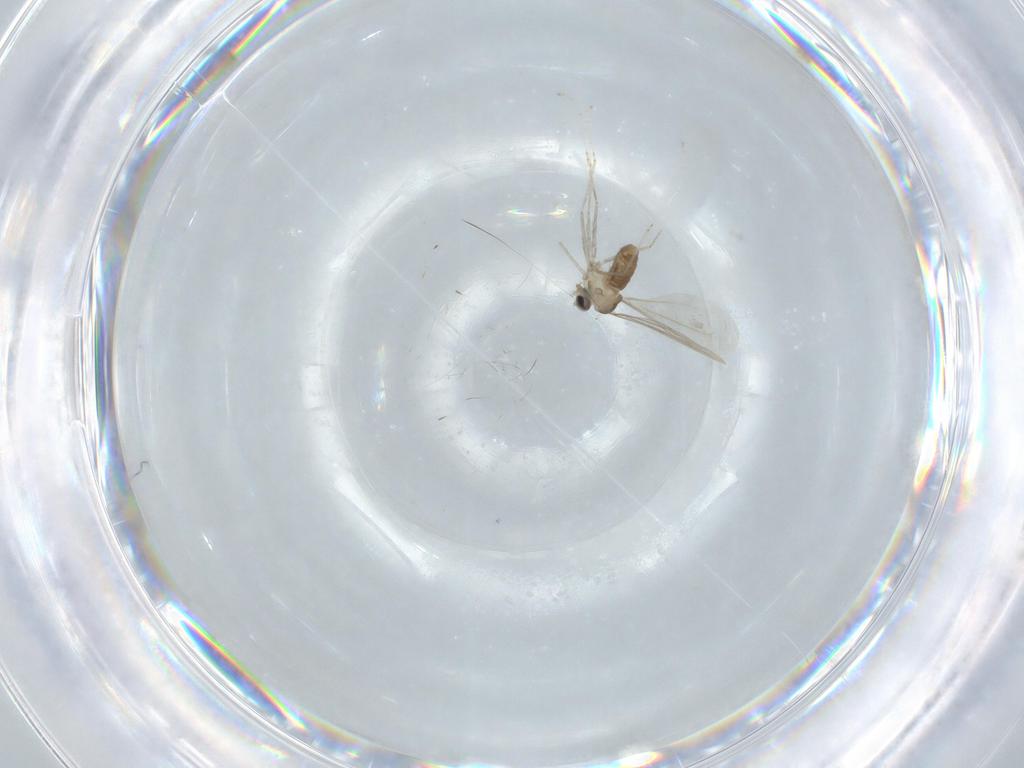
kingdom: Animalia
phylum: Arthropoda
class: Insecta
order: Diptera
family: Cecidomyiidae
